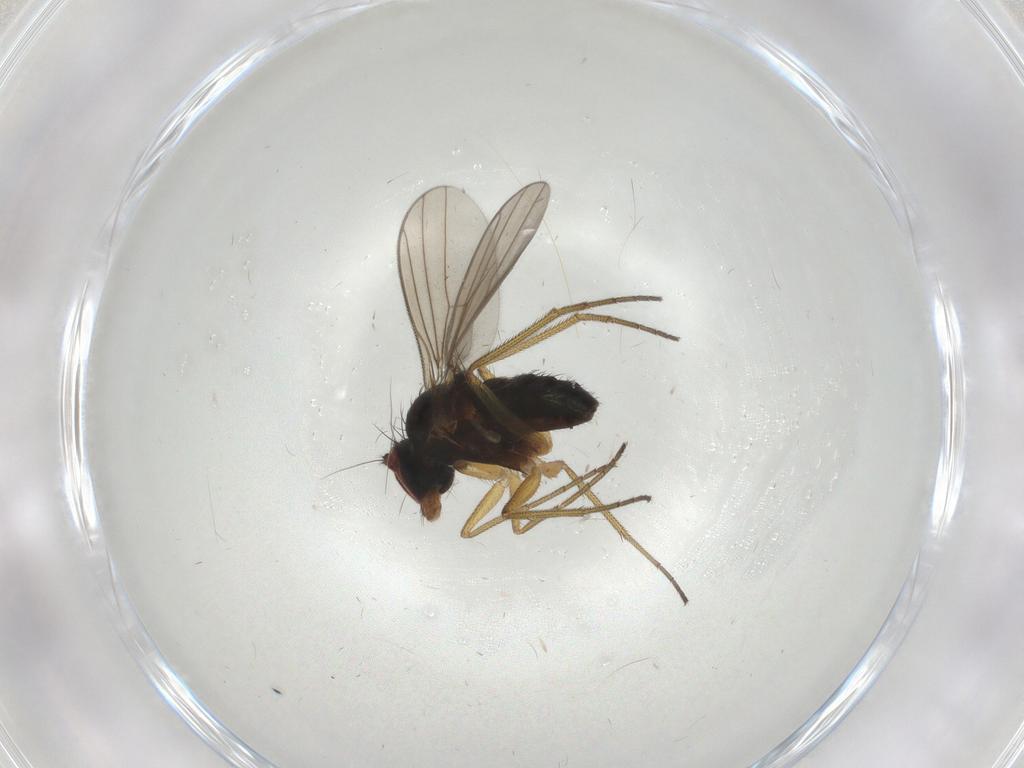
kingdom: Animalia
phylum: Arthropoda
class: Insecta
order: Diptera
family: Dolichopodidae
